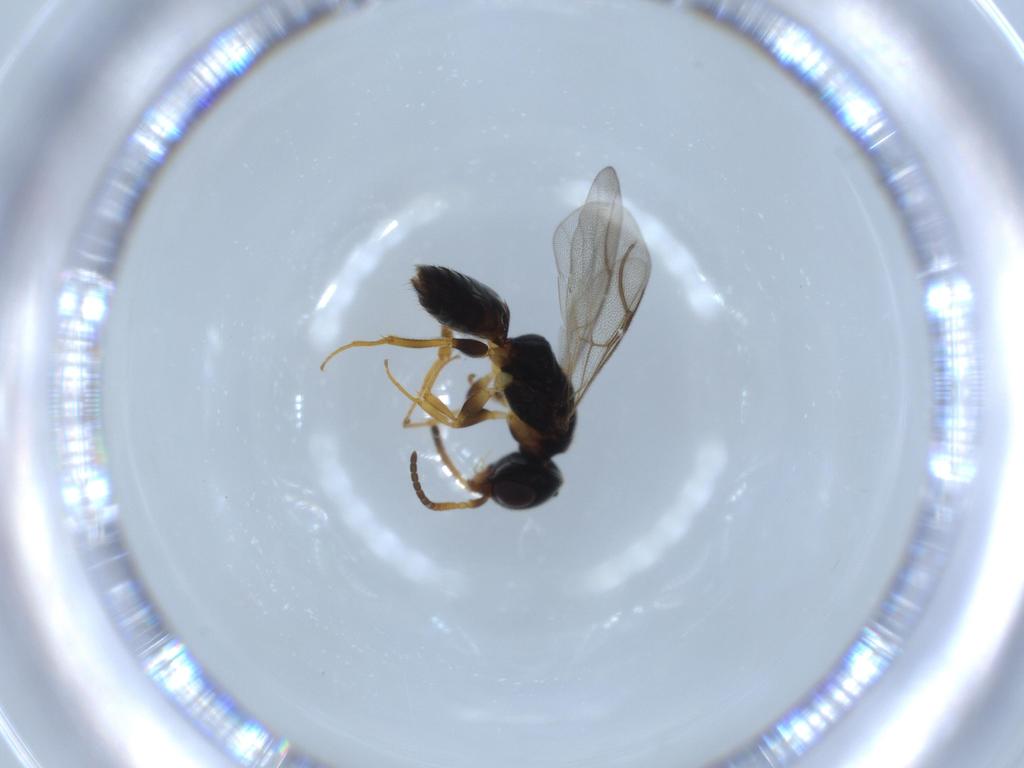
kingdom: Animalia
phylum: Arthropoda
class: Insecta
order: Hymenoptera
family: Bethylidae
